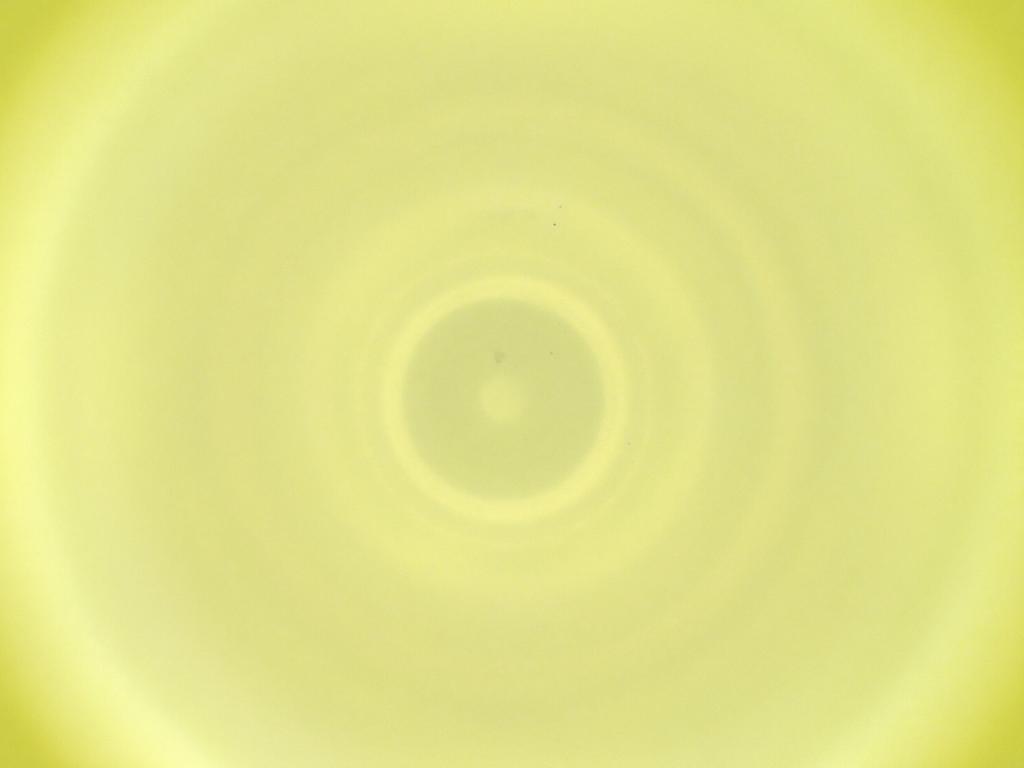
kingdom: Animalia
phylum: Arthropoda
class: Insecta
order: Diptera
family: Cecidomyiidae
